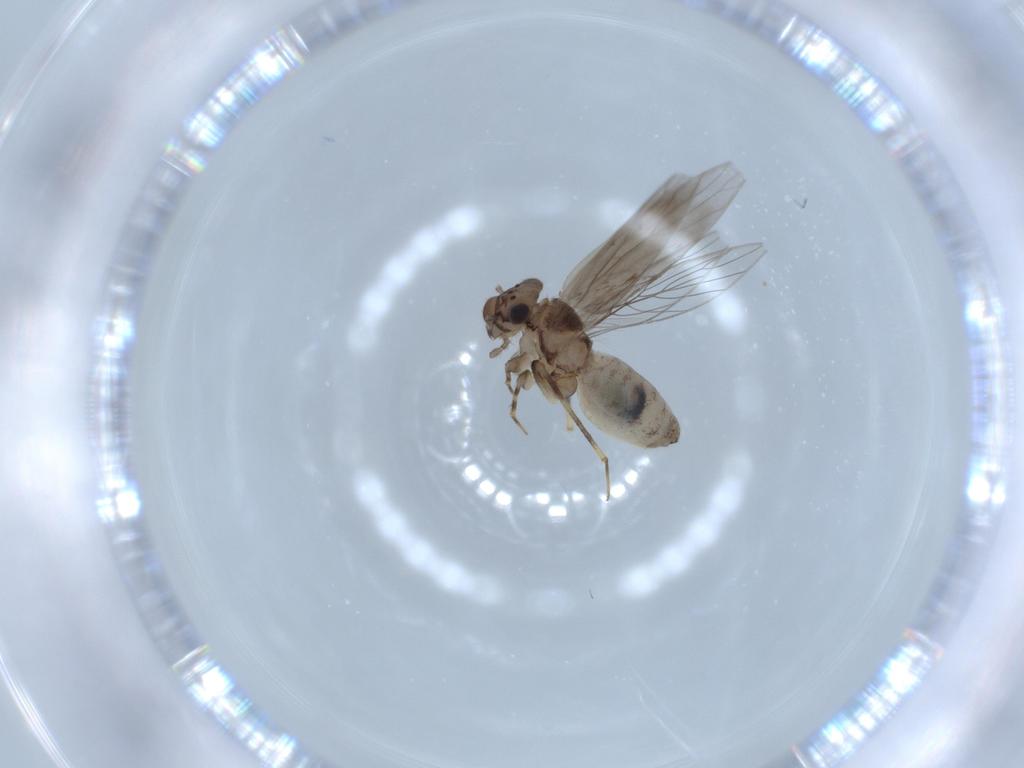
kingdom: Animalia
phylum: Arthropoda
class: Insecta
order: Psocodea
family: Lepidopsocidae
